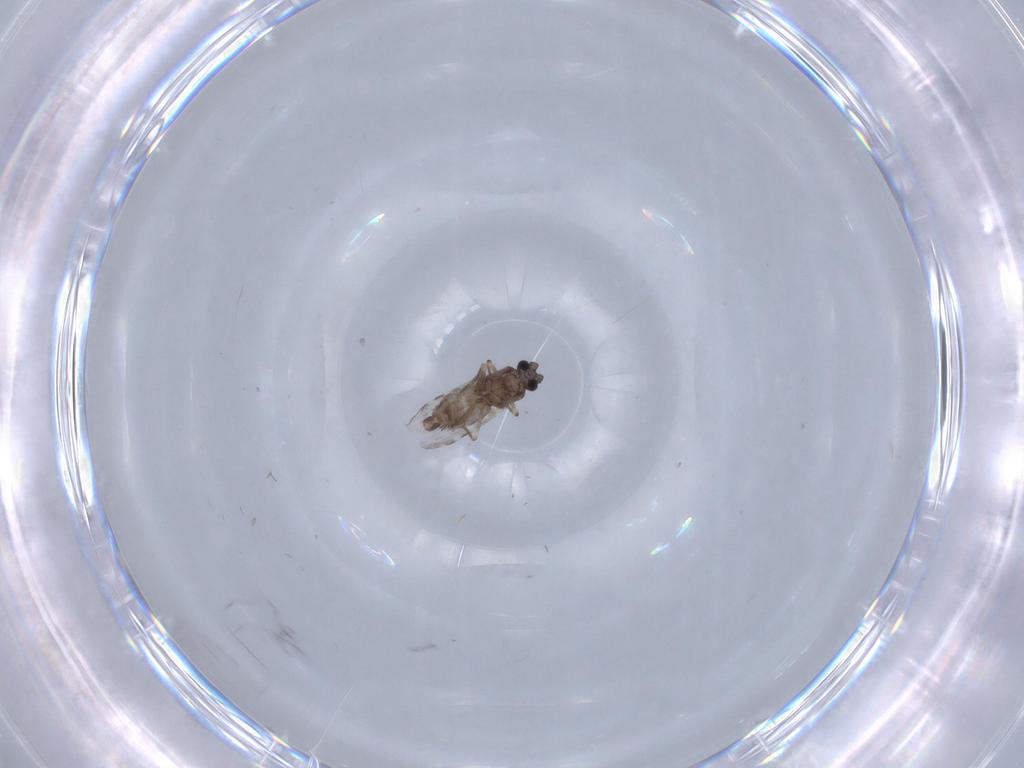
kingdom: Animalia
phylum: Arthropoda
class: Insecta
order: Diptera
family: Ceratopogonidae
